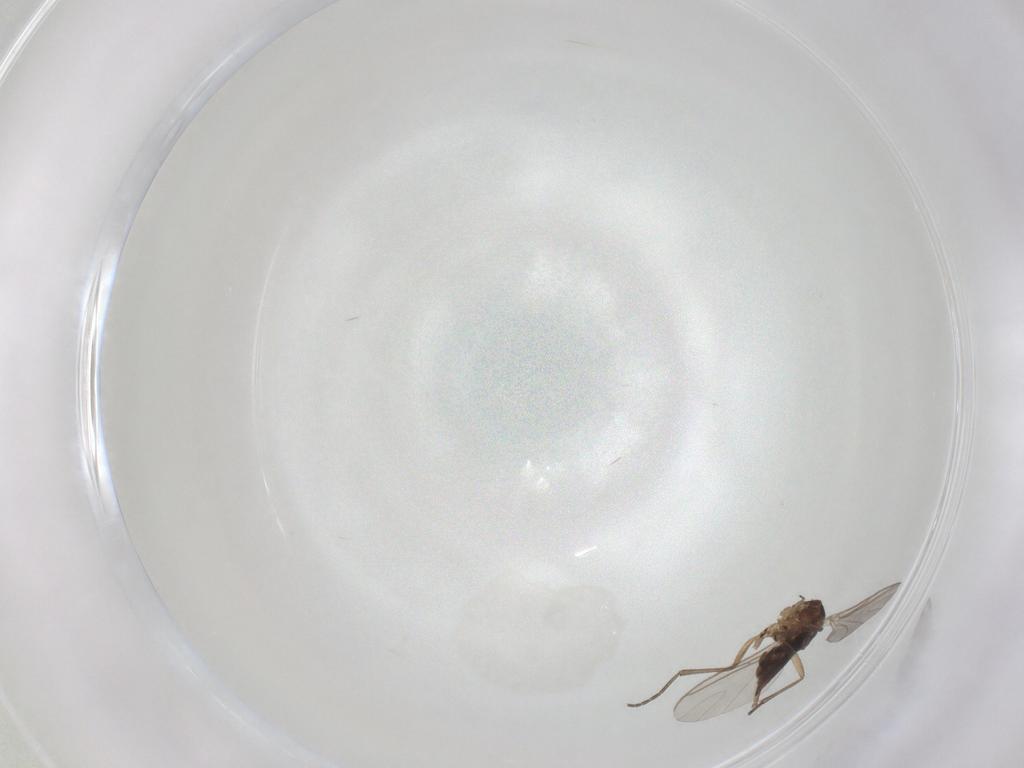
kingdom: Animalia
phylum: Arthropoda
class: Insecta
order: Diptera
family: Sciaridae
